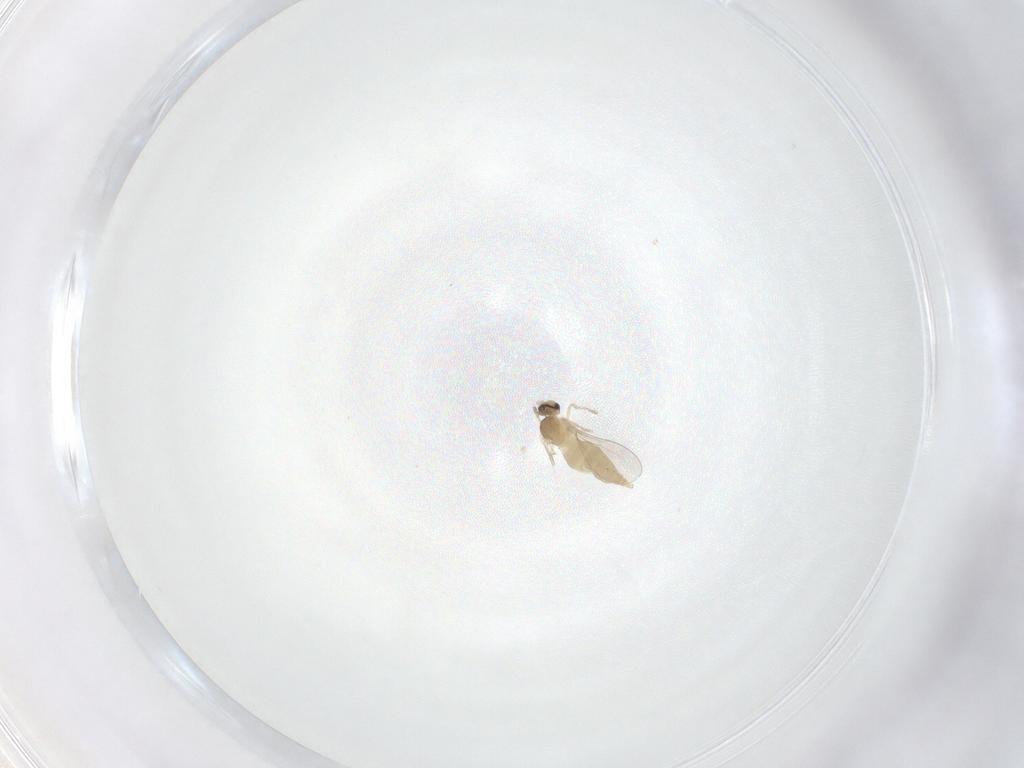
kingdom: Animalia
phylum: Arthropoda
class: Insecta
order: Diptera
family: Cecidomyiidae
